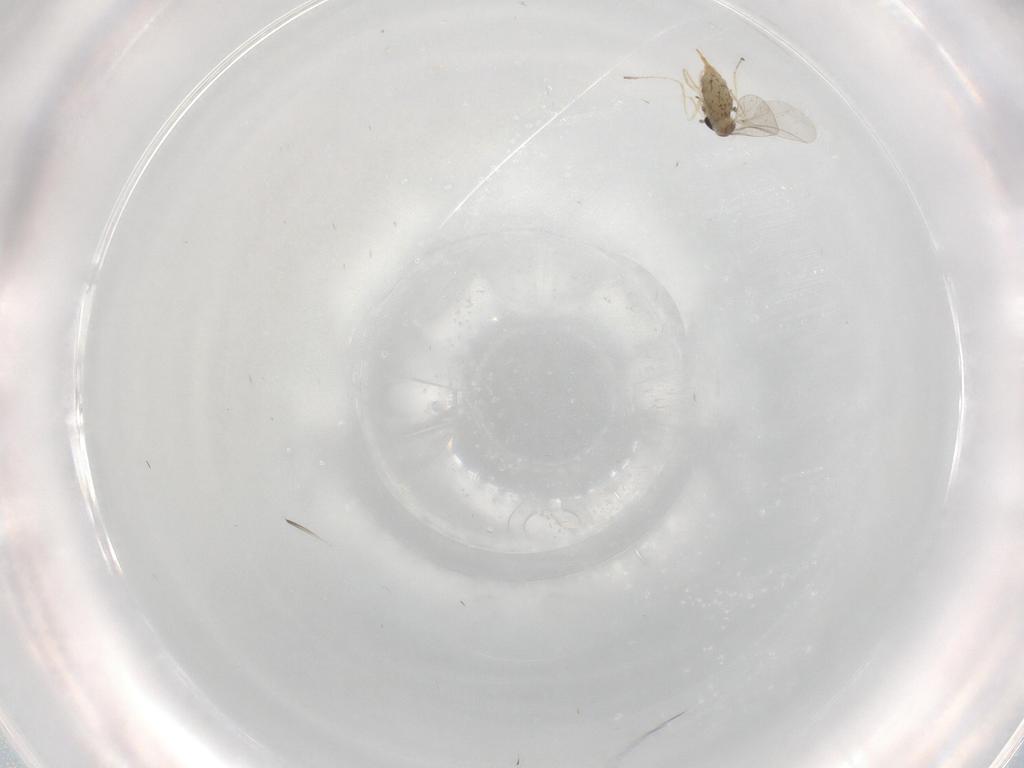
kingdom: Animalia
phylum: Arthropoda
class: Insecta
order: Diptera
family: Cecidomyiidae
